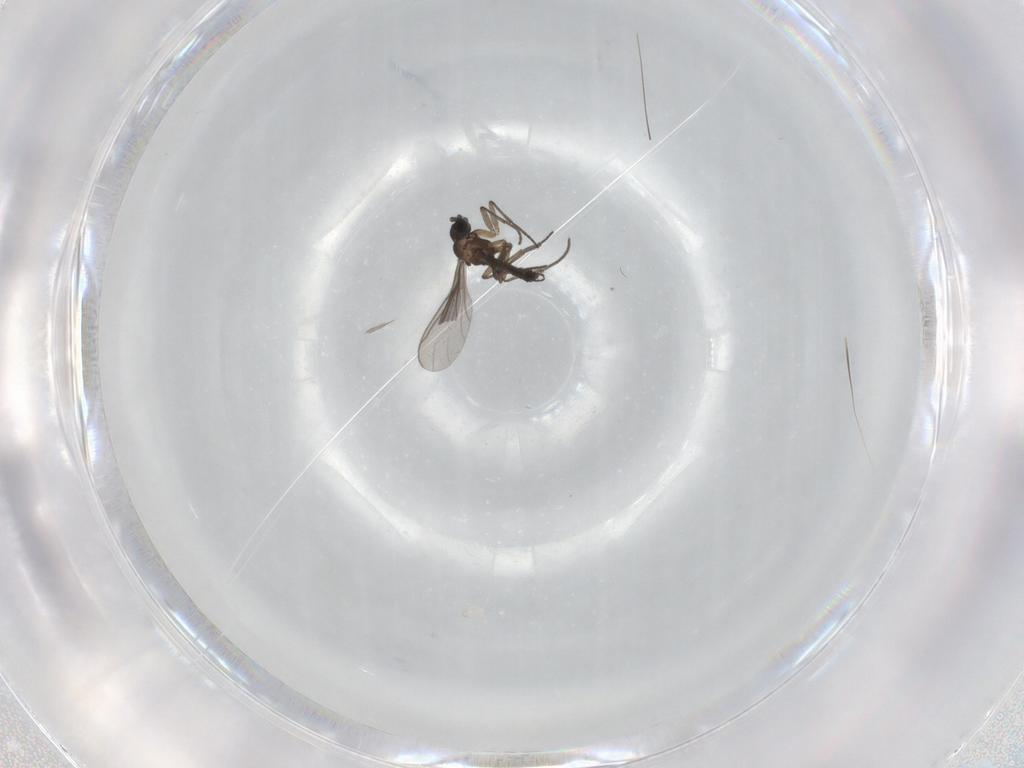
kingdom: Animalia
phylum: Arthropoda
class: Insecta
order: Diptera
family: Sciaridae
